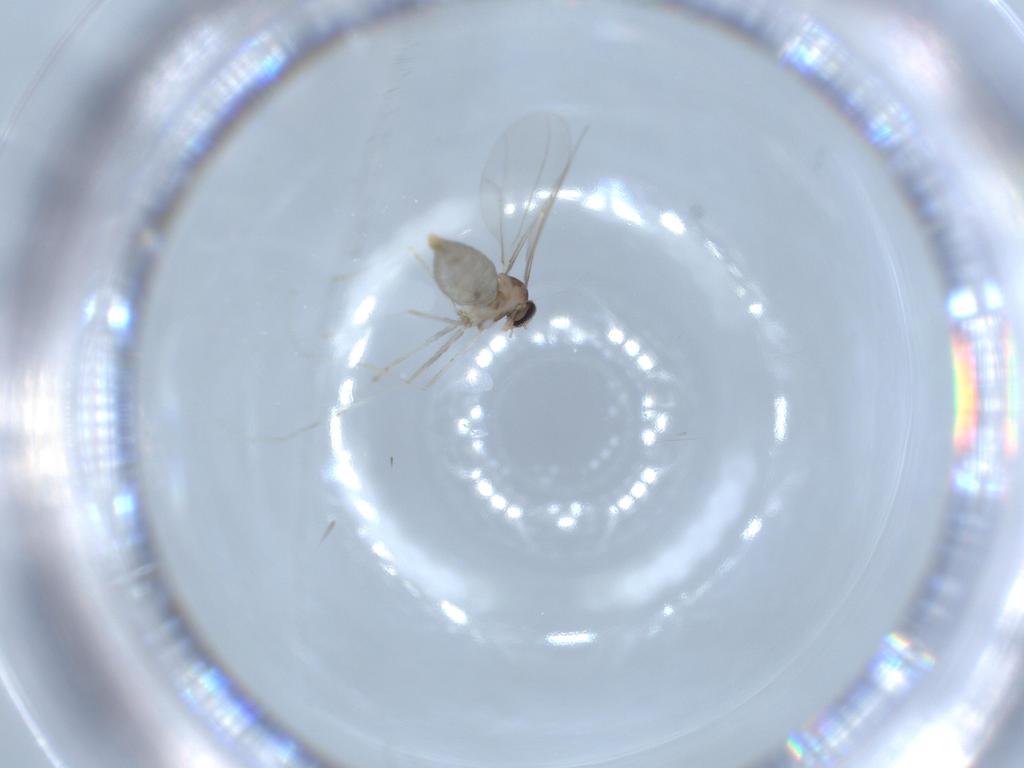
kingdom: Animalia
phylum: Arthropoda
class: Insecta
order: Diptera
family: Cecidomyiidae
